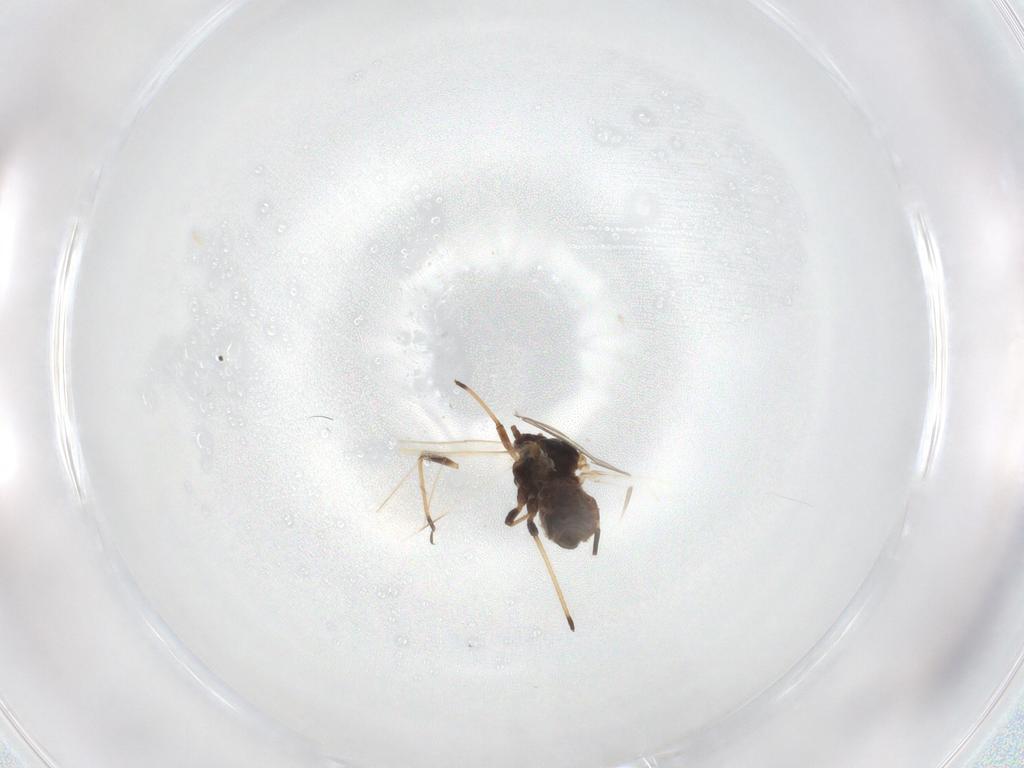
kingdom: Animalia
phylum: Arthropoda
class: Insecta
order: Hemiptera
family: Aphididae
